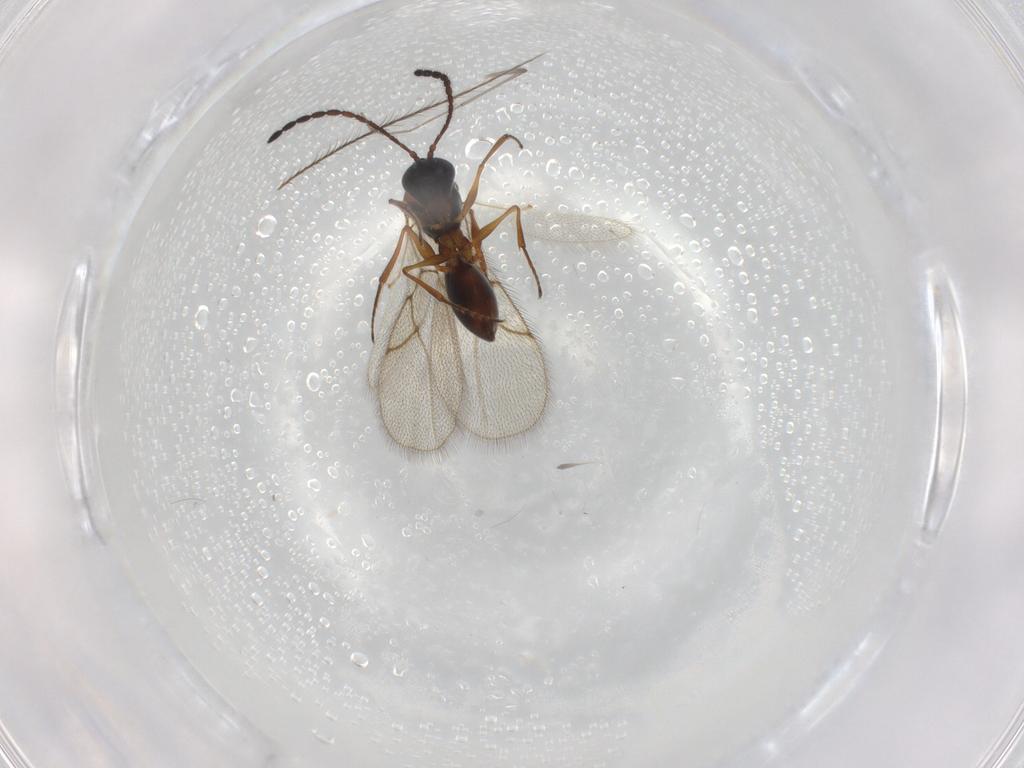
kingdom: Animalia
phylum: Arthropoda
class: Insecta
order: Hymenoptera
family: Figitidae
